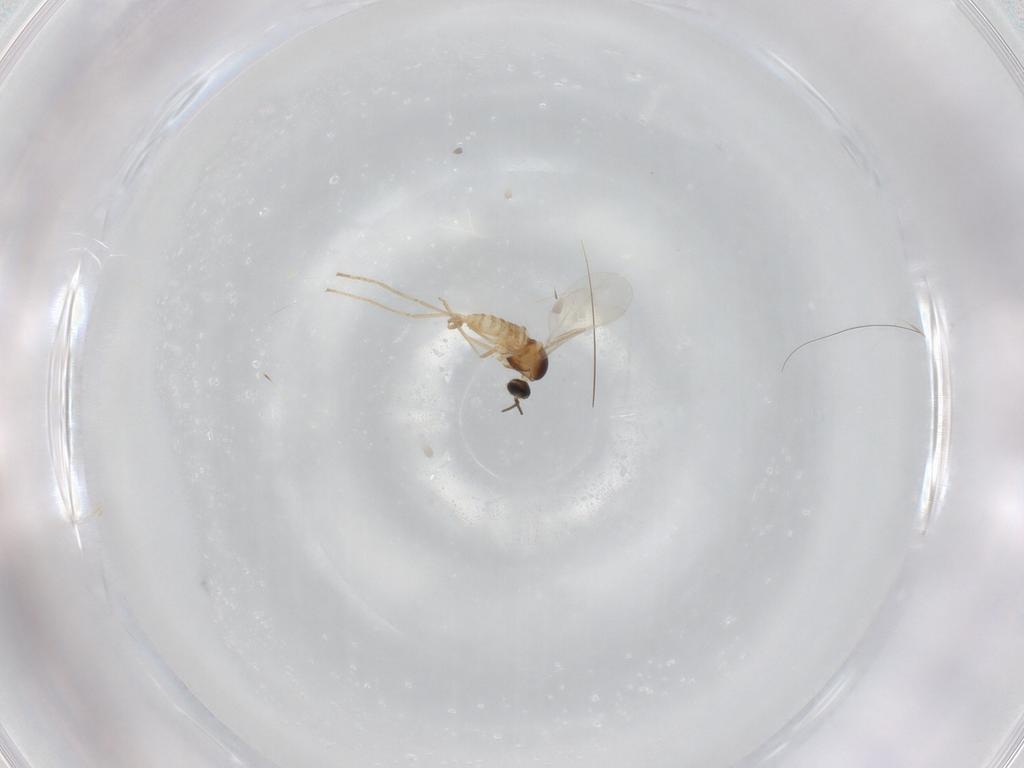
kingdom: Animalia
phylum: Arthropoda
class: Insecta
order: Diptera
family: Cecidomyiidae
